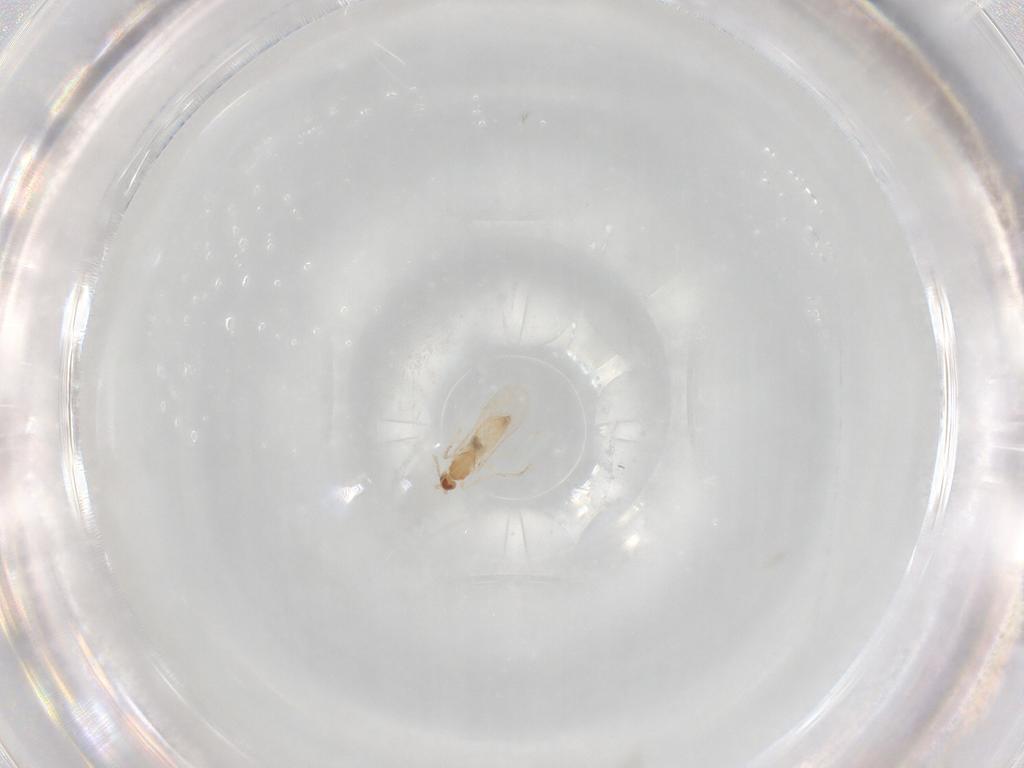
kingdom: Animalia
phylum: Arthropoda
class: Insecta
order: Diptera
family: Cecidomyiidae
